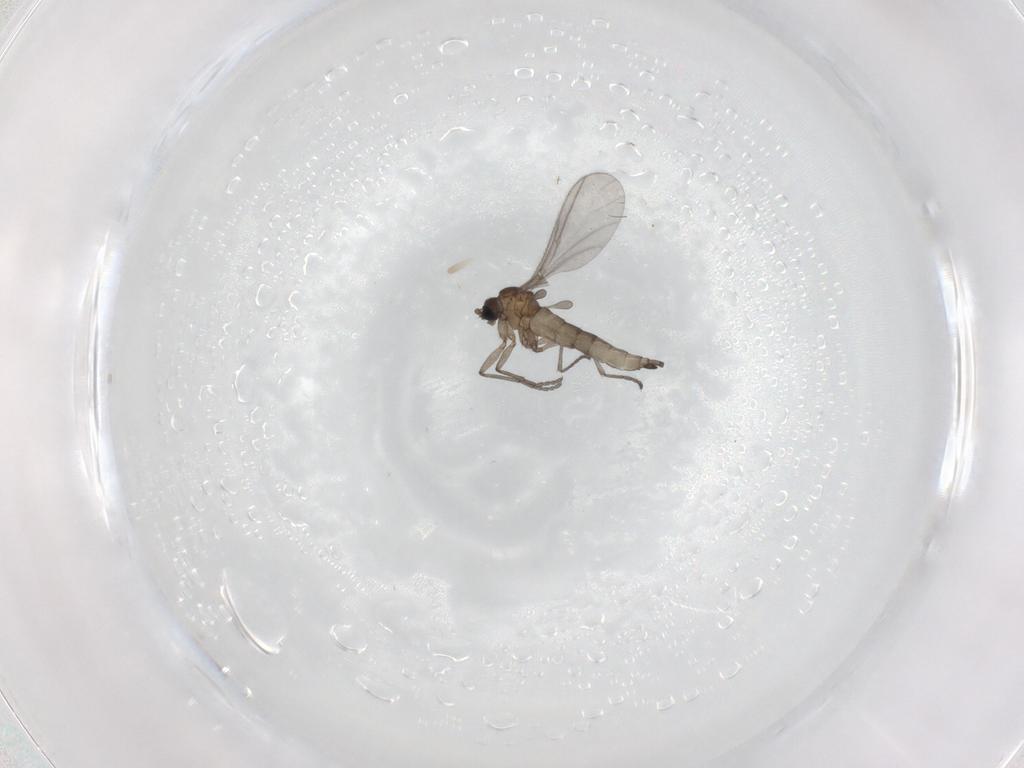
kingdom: Animalia
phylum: Arthropoda
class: Insecta
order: Diptera
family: Sciaridae
